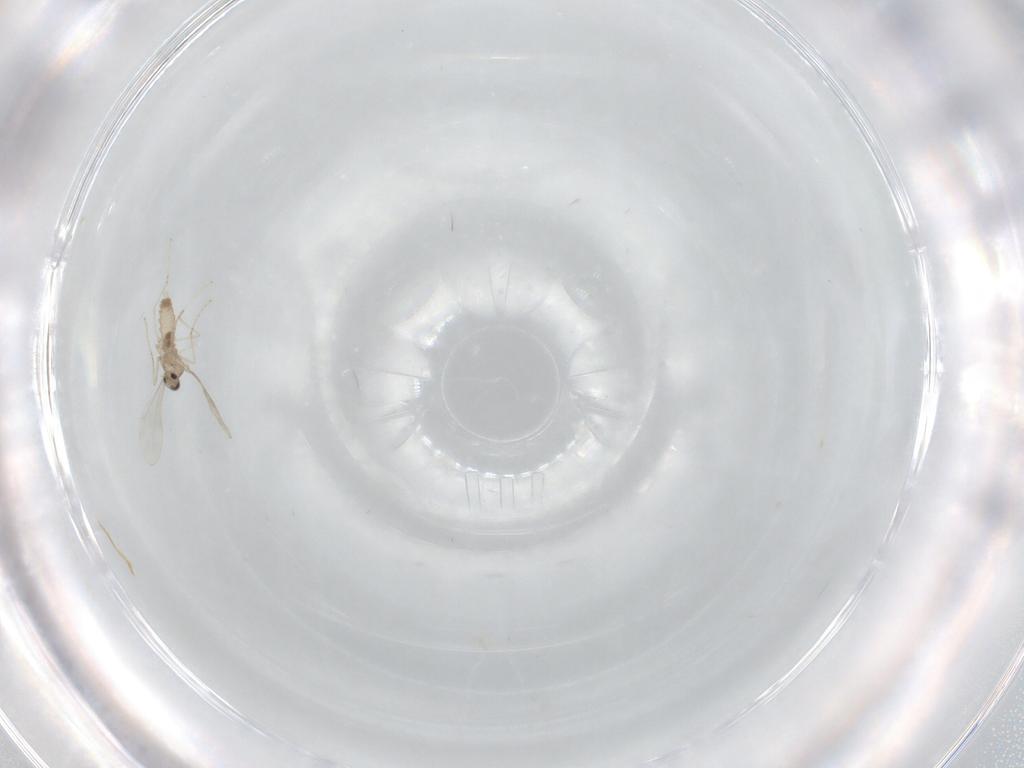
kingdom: Animalia
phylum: Arthropoda
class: Insecta
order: Diptera
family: Cecidomyiidae
